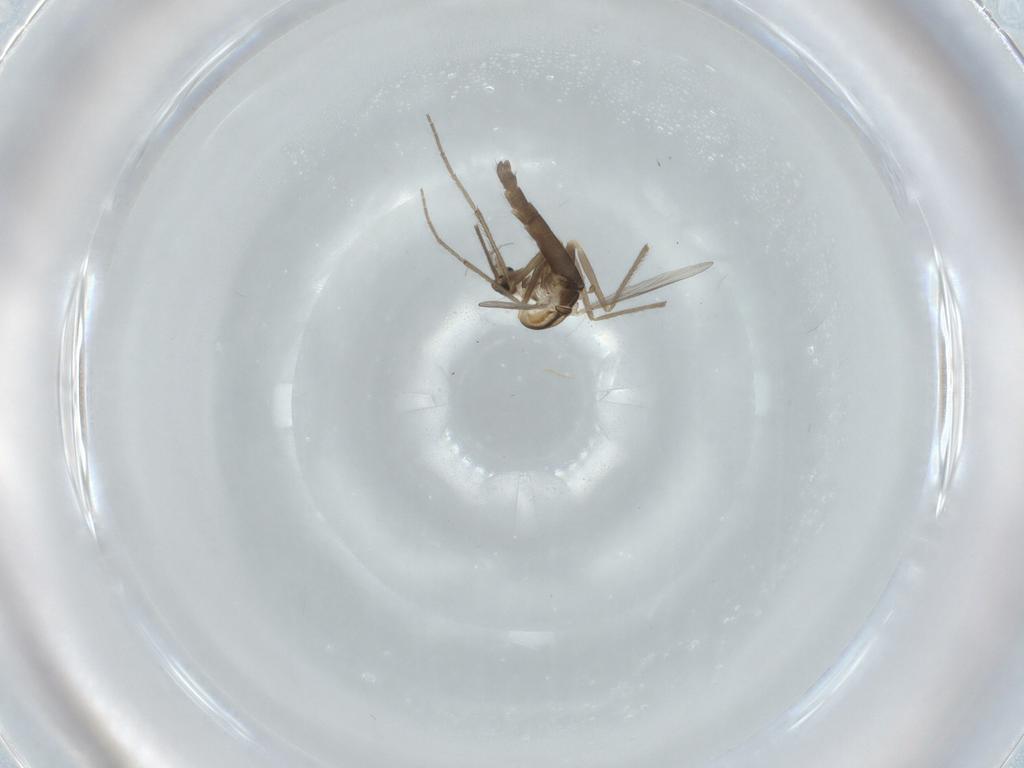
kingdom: Animalia
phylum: Arthropoda
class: Insecta
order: Diptera
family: Chironomidae
